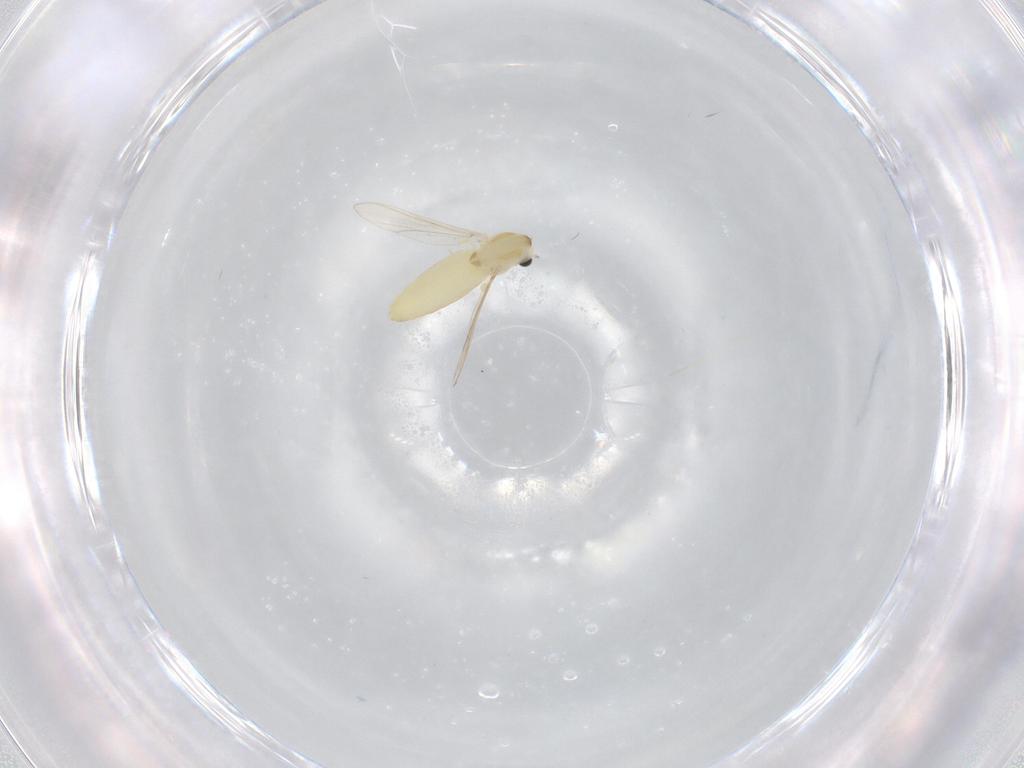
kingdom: Animalia
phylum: Arthropoda
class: Insecta
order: Diptera
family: Chironomidae
